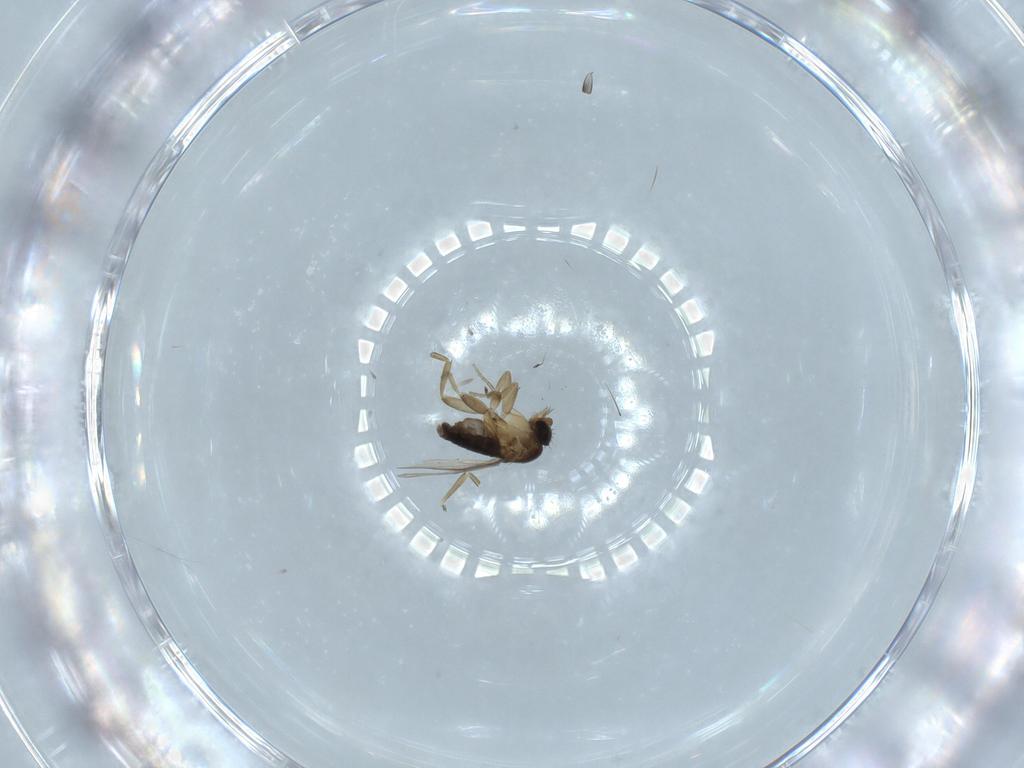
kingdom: Animalia
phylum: Arthropoda
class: Insecta
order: Diptera
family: Phoridae
